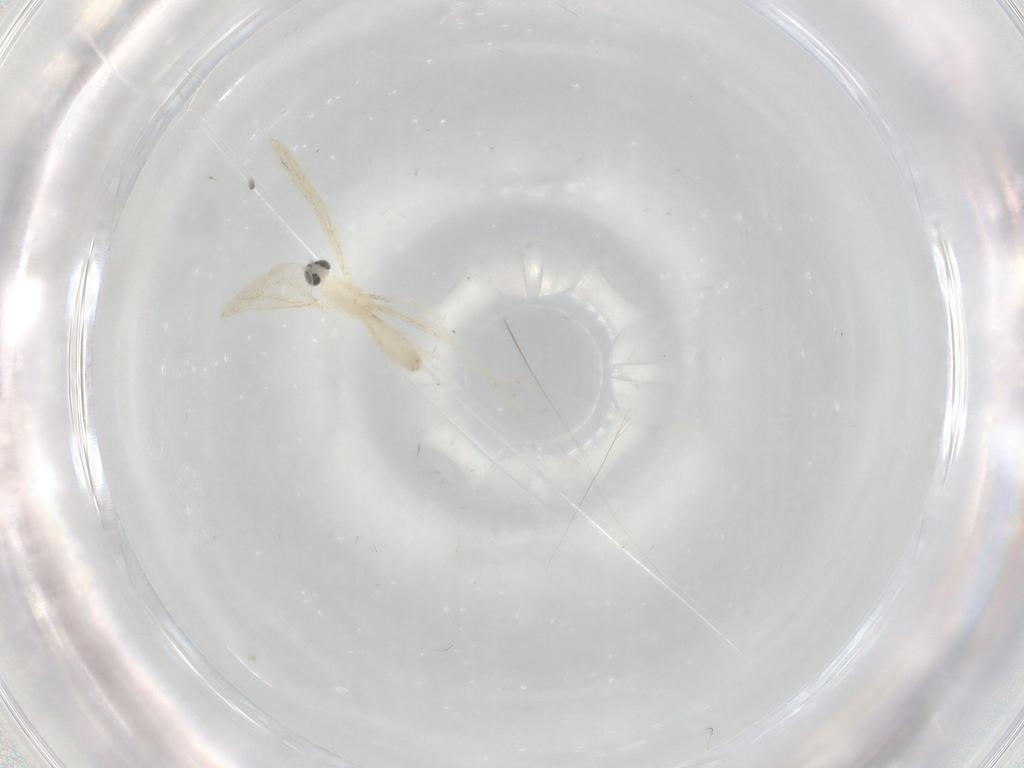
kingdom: Animalia
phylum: Arthropoda
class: Insecta
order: Diptera
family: Cecidomyiidae
